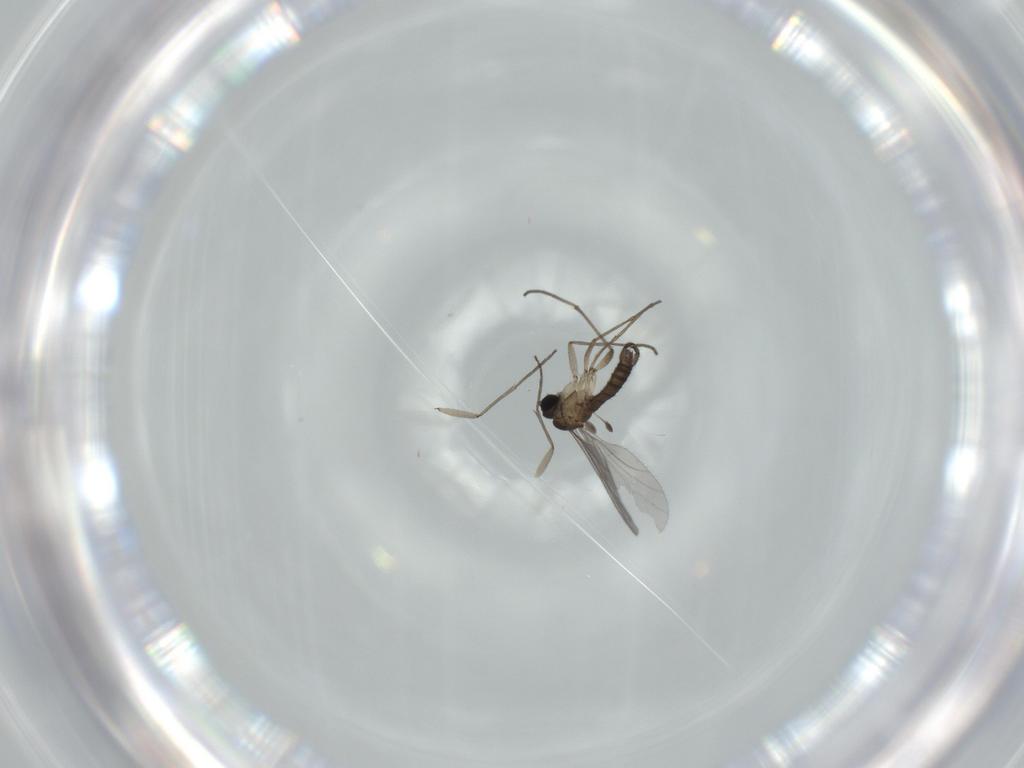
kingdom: Animalia
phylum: Arthropoda
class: Insecta
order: Diptera
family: Sciaridae
